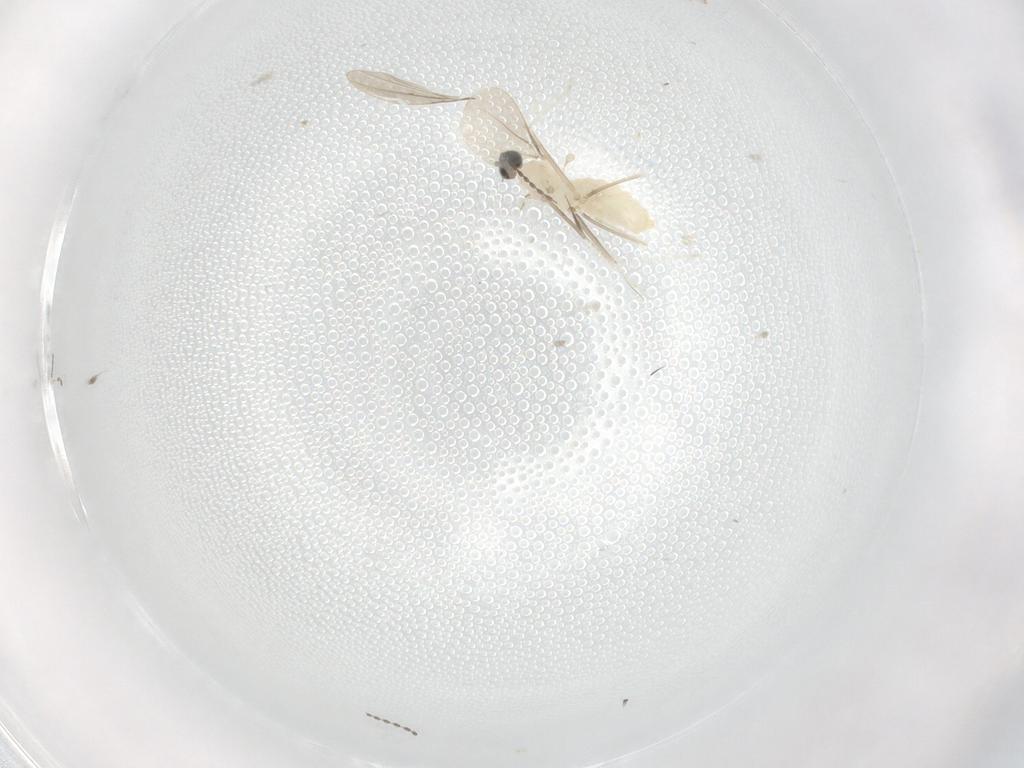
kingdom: Animalia
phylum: Arthropoda
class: Insecta
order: Diptera
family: Cecidomyiidae
